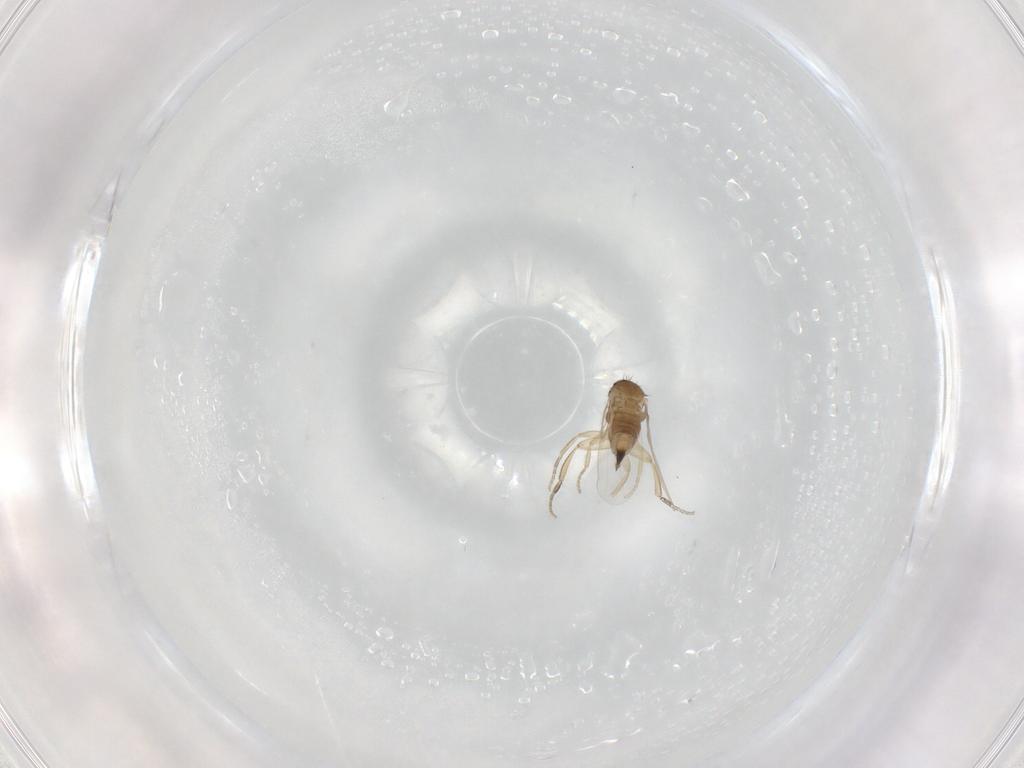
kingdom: Animalia
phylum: Arthropoda
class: Insecta
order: Diptera
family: Phoridae
